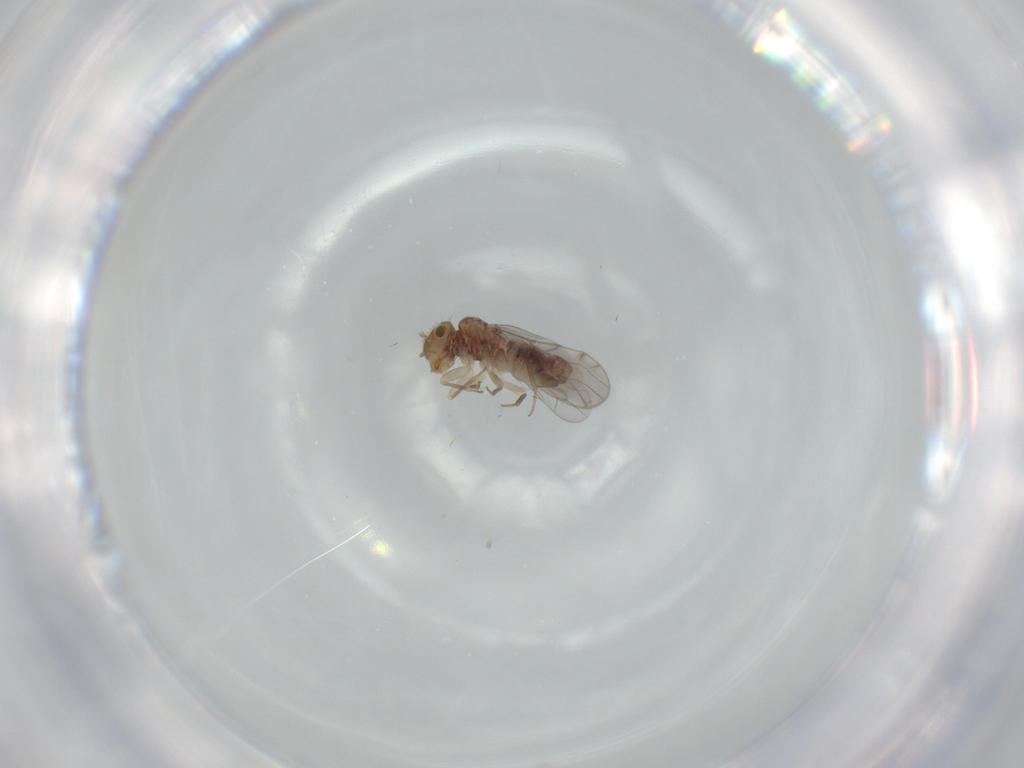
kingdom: Animalia
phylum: Arthropoda
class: Insecta
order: Psocodea
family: Ectopsocidae
